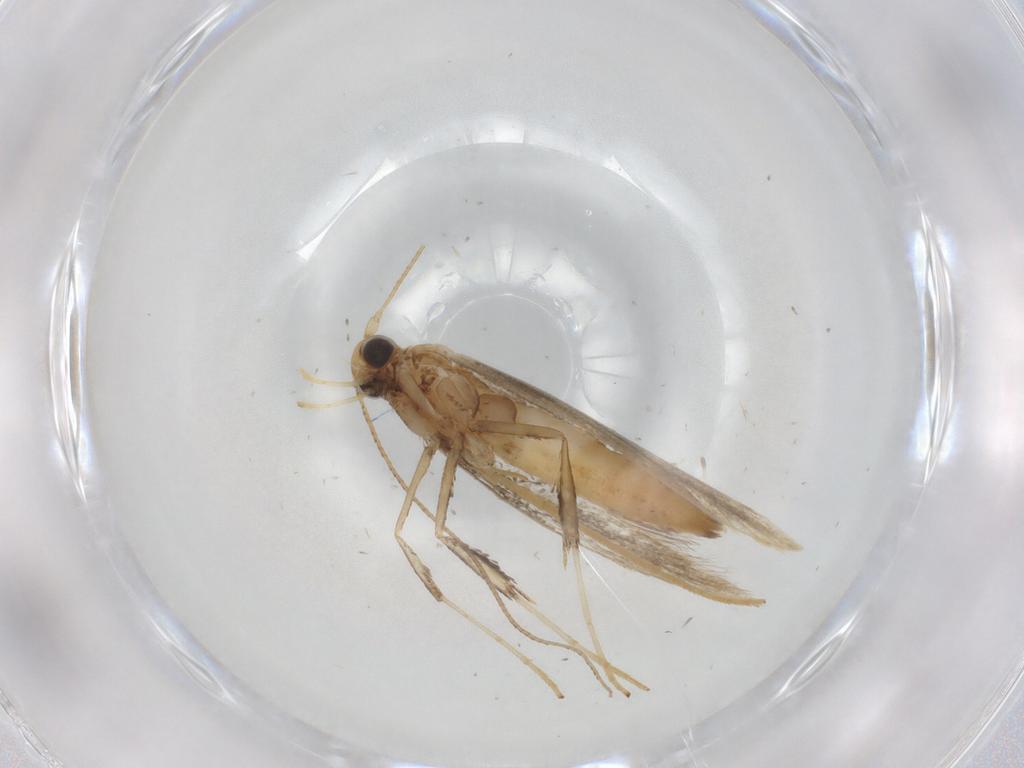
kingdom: Animalia
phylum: Arthropoda
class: Insecta
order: Lepidoptera
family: Gracillariidae
